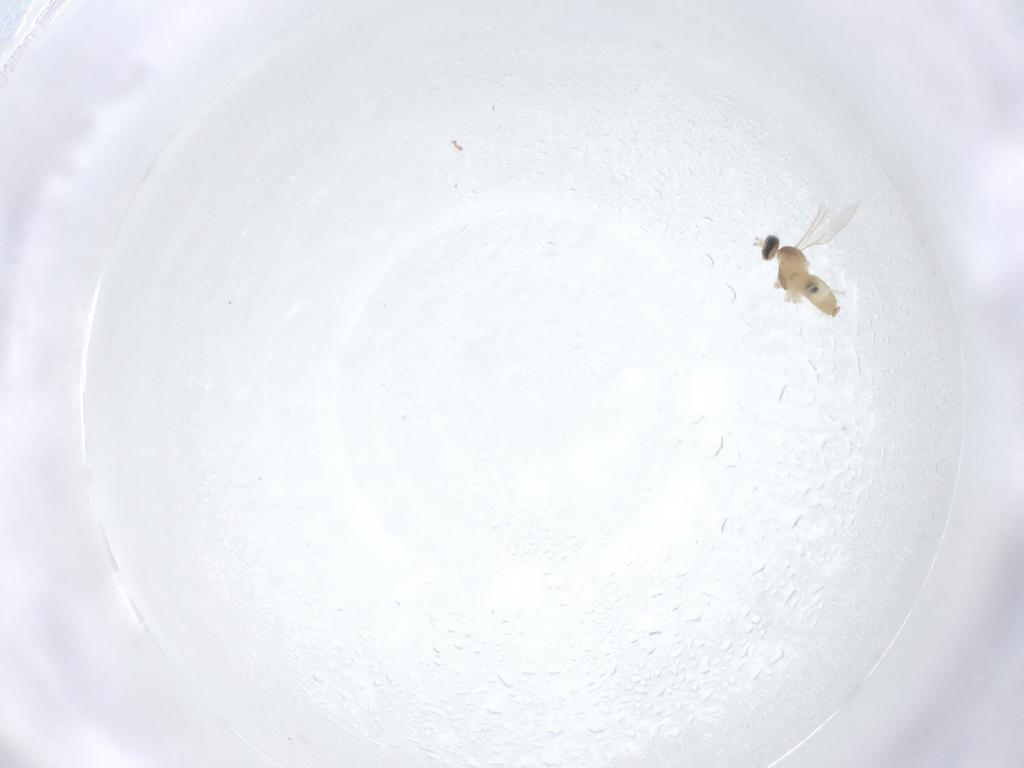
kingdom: Animalia
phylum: Arthropoda
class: Insecta
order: Diptera
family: Cecidomyiidae
